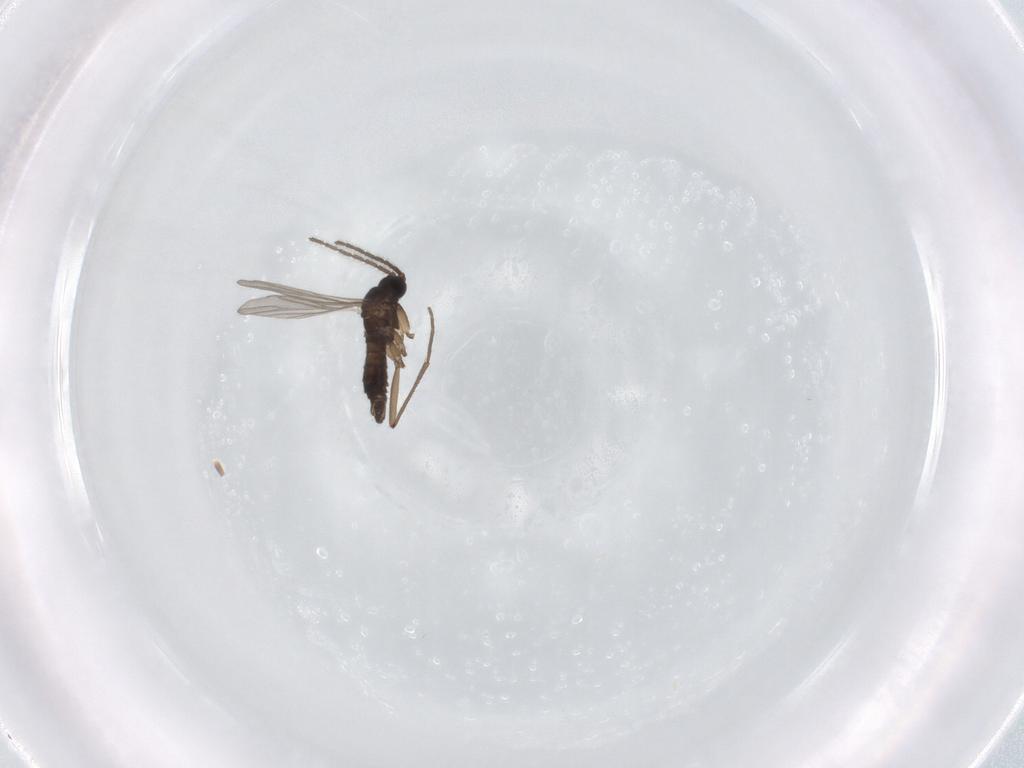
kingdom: Animalia
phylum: Arthropoda
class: Insecta
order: Diptera
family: Sciaridae
